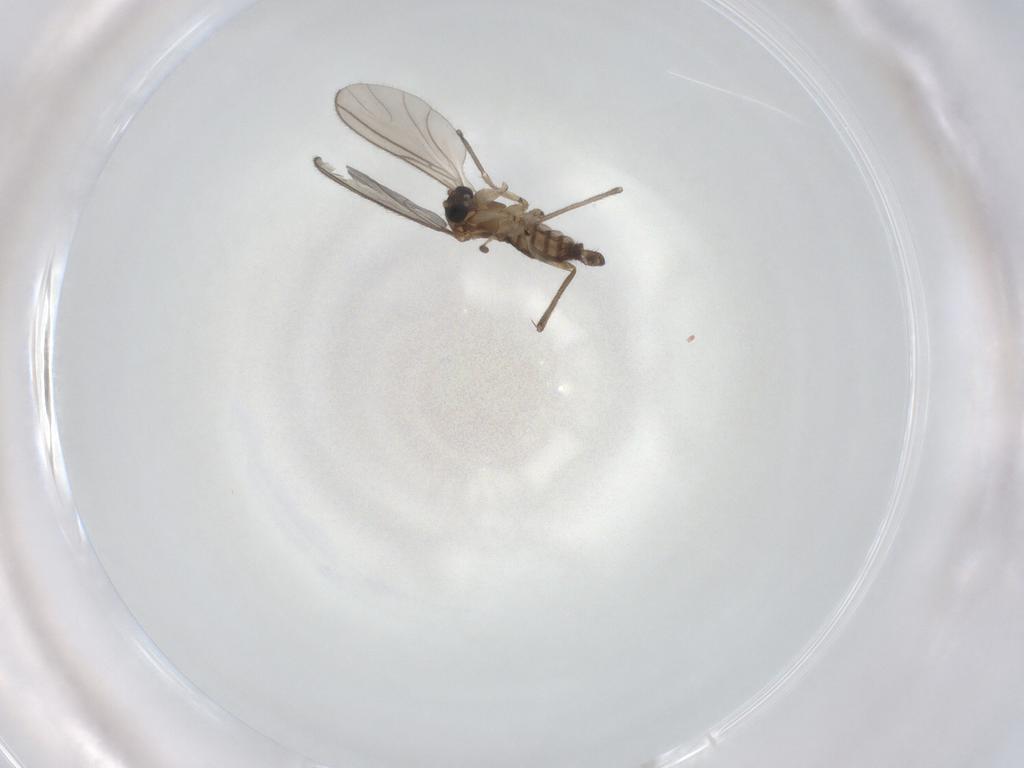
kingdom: Animalia
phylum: Arthropoda
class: Insecta
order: Diptera
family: Sciaridae
